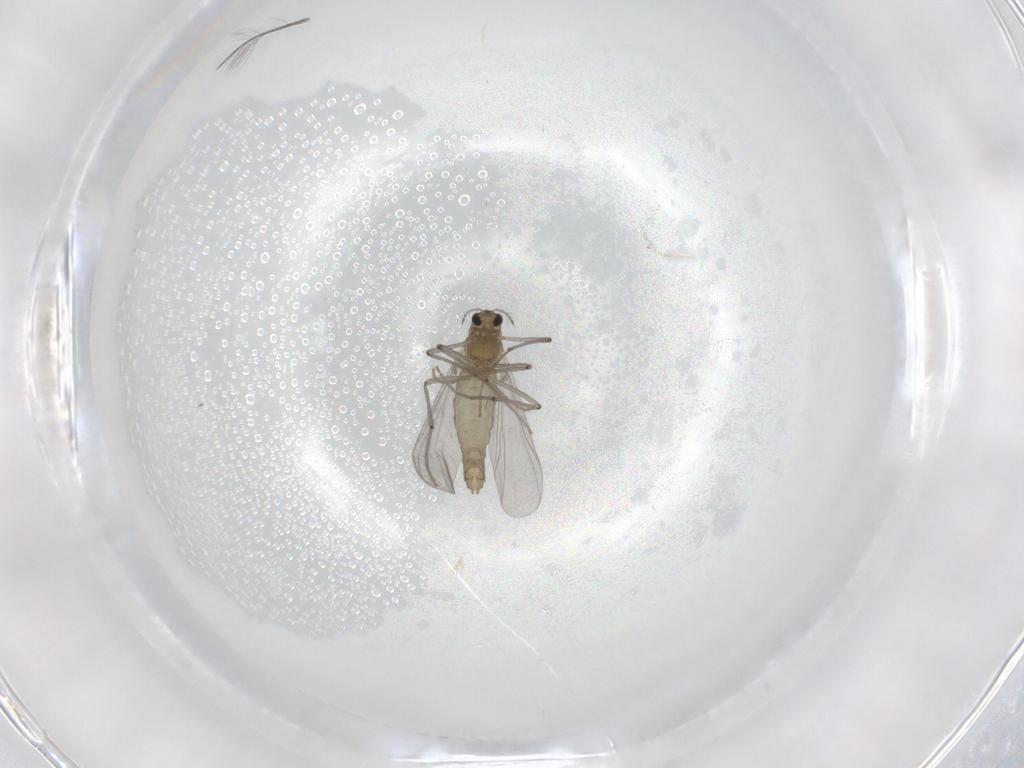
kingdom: Animalia
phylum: Arthropoda
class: Insecta
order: Diptera
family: Chironomidae
